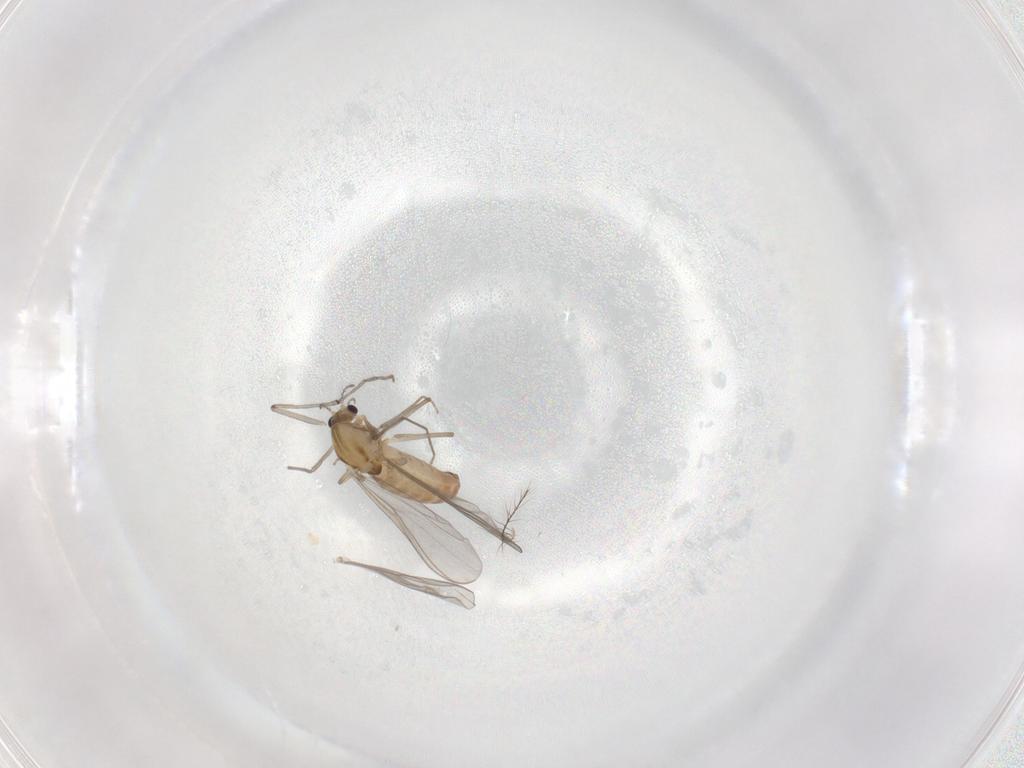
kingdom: Animalia
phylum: Arthropoda
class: Insecta
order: Diptera
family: Chironomidae
